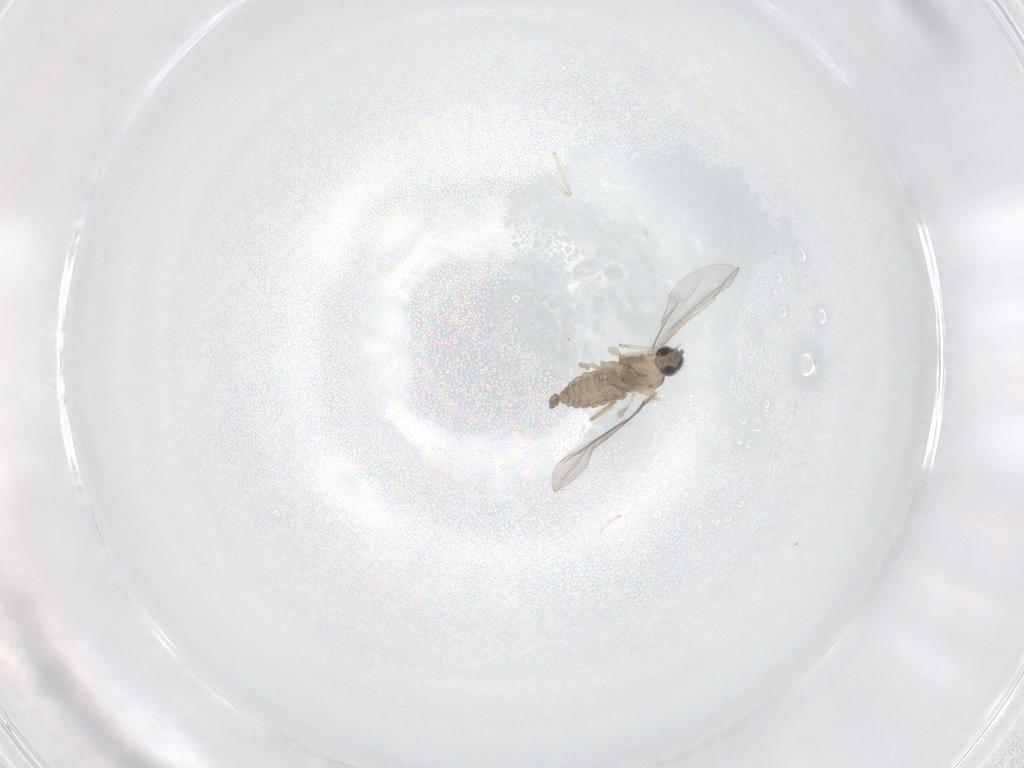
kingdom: Animalia
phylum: Arthropoda
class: Insecta
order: Diptera
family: Cecidomyiidae
